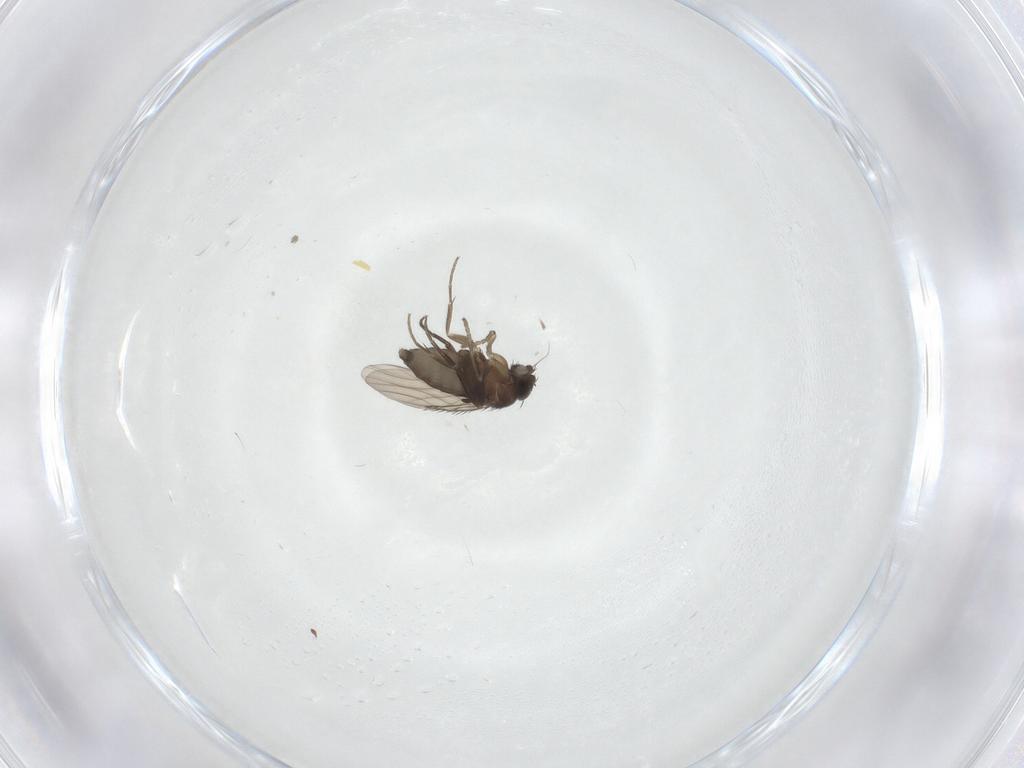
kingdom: Animalia
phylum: Arthropoda
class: Insecta
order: Diptera
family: Phoridae
